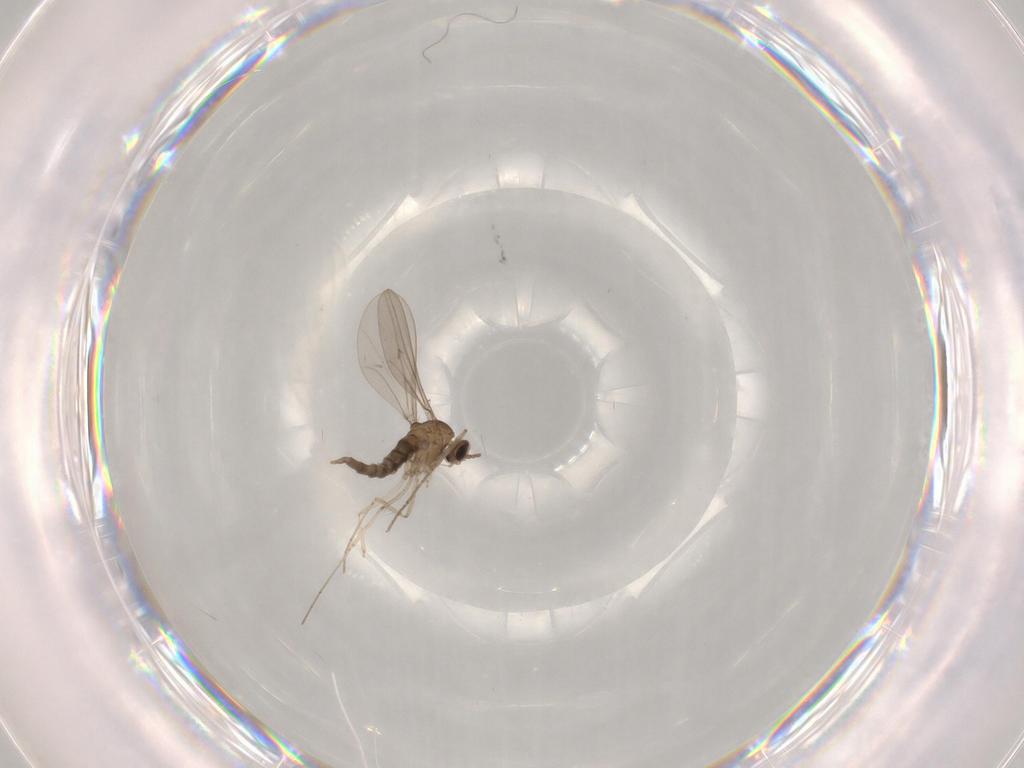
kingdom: Animalia
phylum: Arthropoda
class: Insecta
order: Diptera
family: Cecidomyiidae
